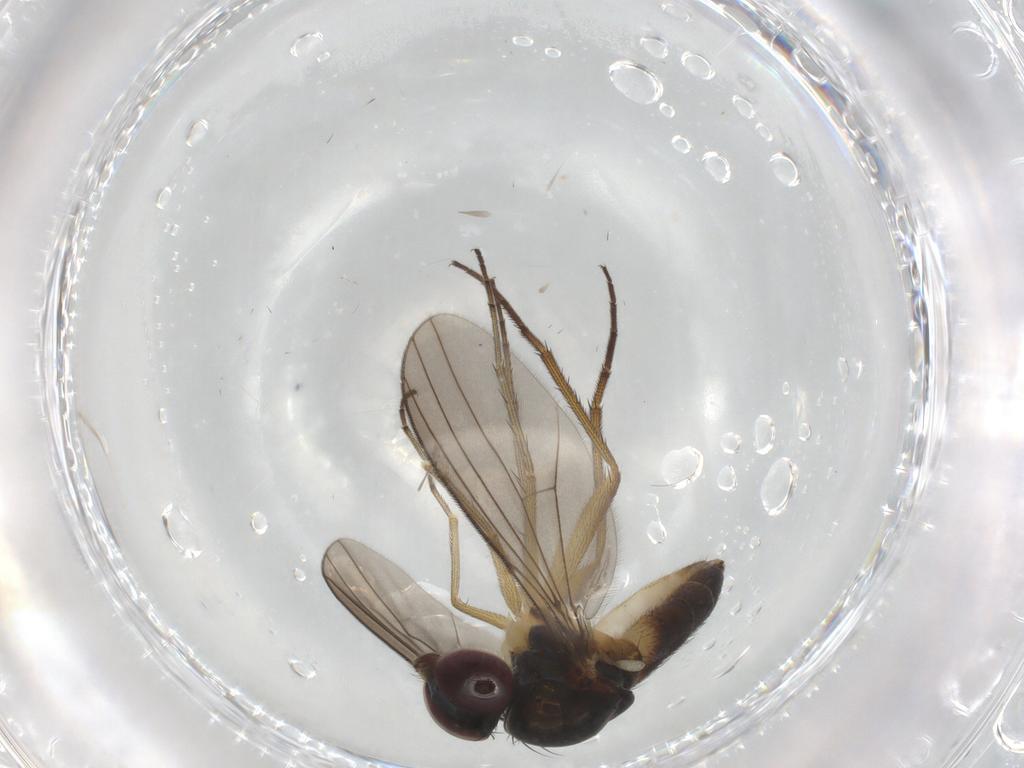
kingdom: Animalia
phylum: Arthropoda
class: Insecta
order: Diptera
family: Dolichopodidae
